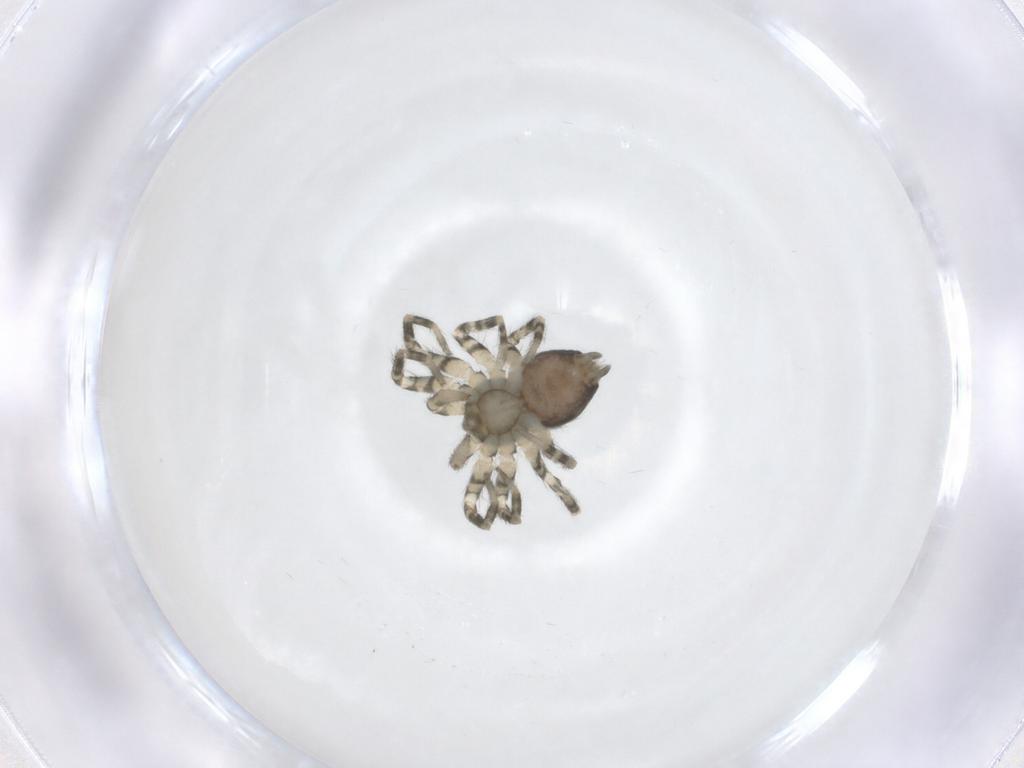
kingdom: Animalia
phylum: Arthropoda
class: Arachnida
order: Araneae
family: Oecobiidae
